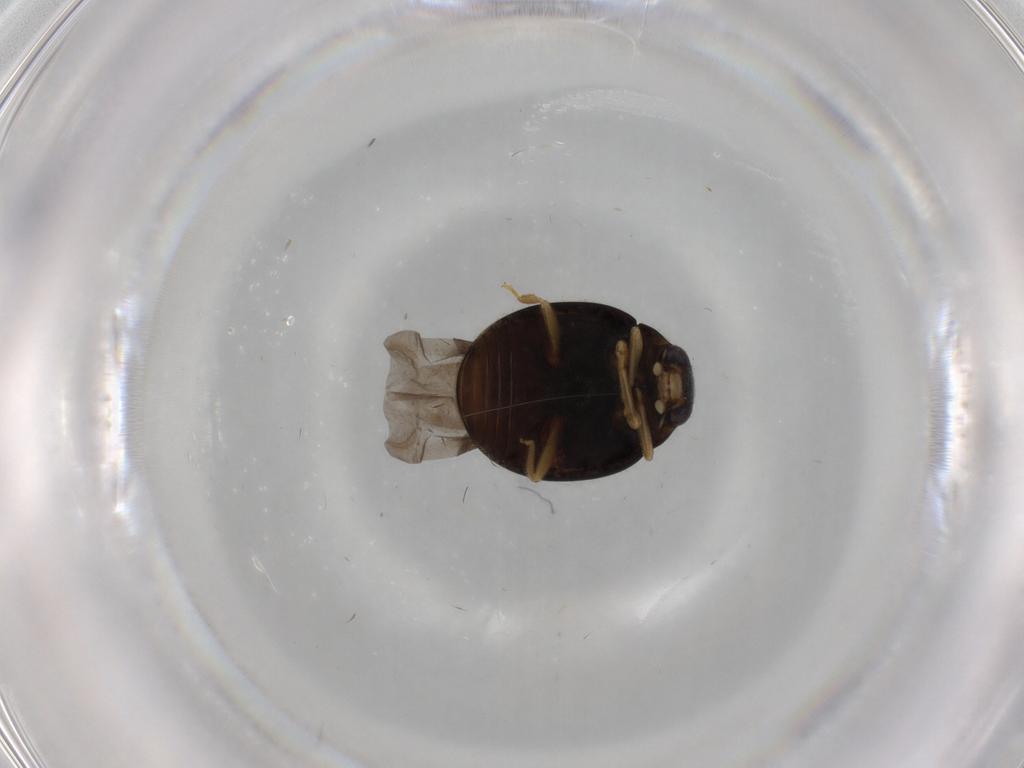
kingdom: Animalia
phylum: Arthropoda
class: Insecta
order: Coleoptera
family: Coccinellidae
